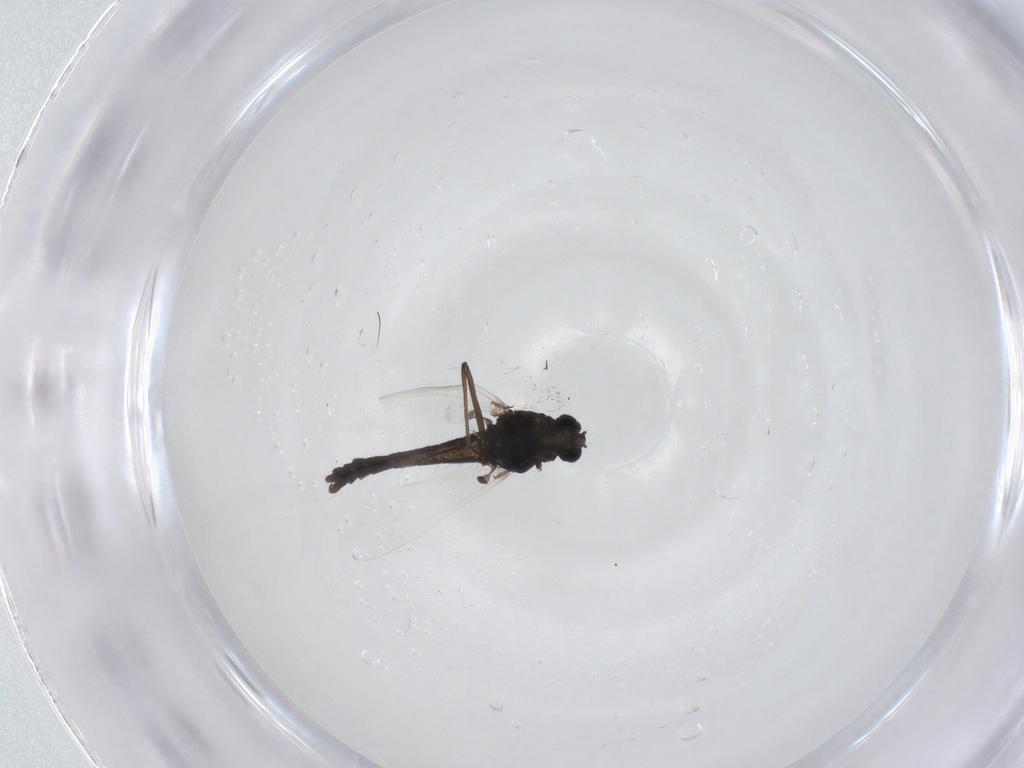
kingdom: Animalia
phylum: Arthropoda
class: Insecta
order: Diptera
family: Chironomidae
